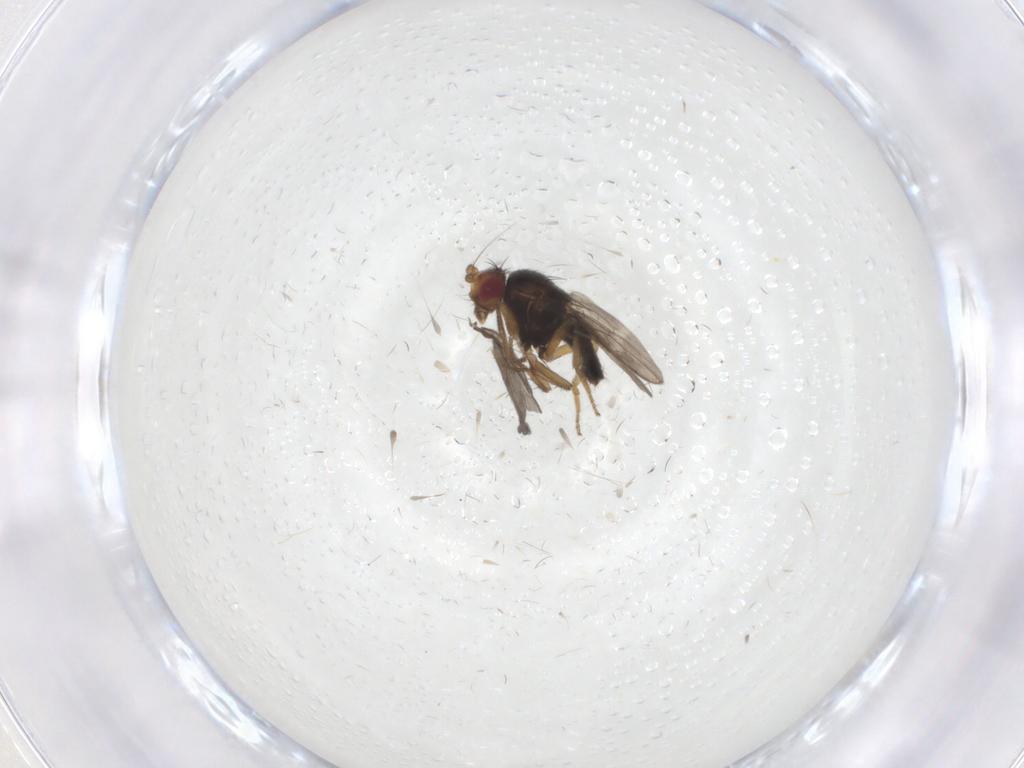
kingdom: Animalia
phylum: Arthropoda
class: Insecta
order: Diptera
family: Sphaeroceridae
